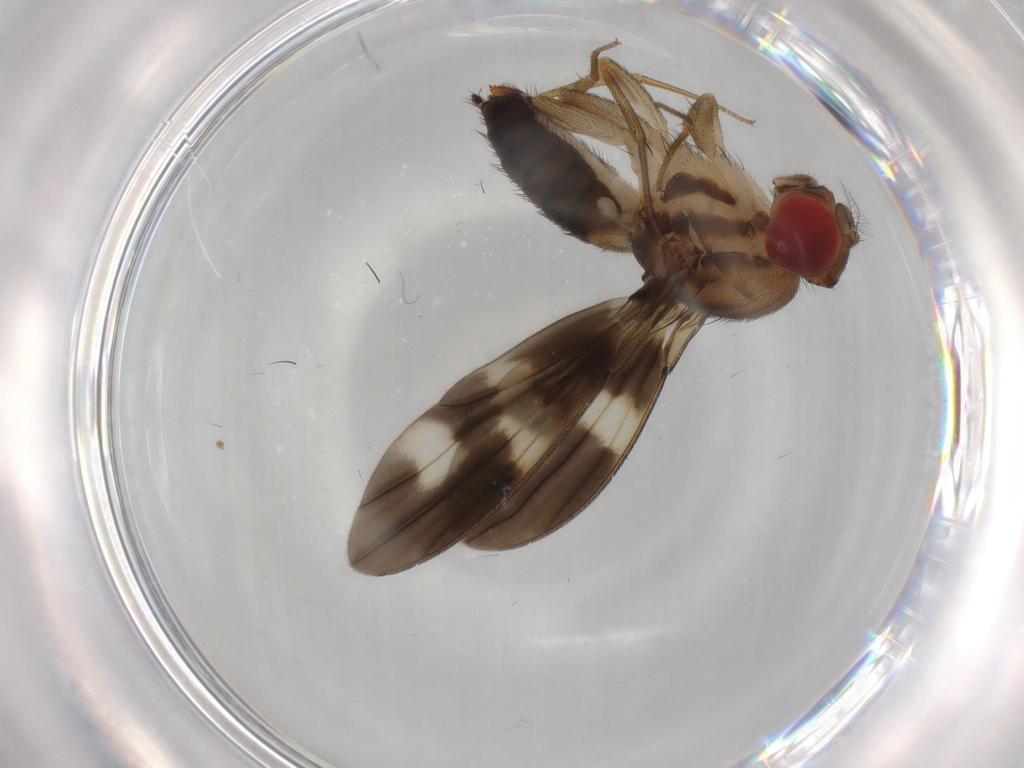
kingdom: Animalia
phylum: Arthropoda
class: Insecta
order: Diptera
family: Drosophilidae
